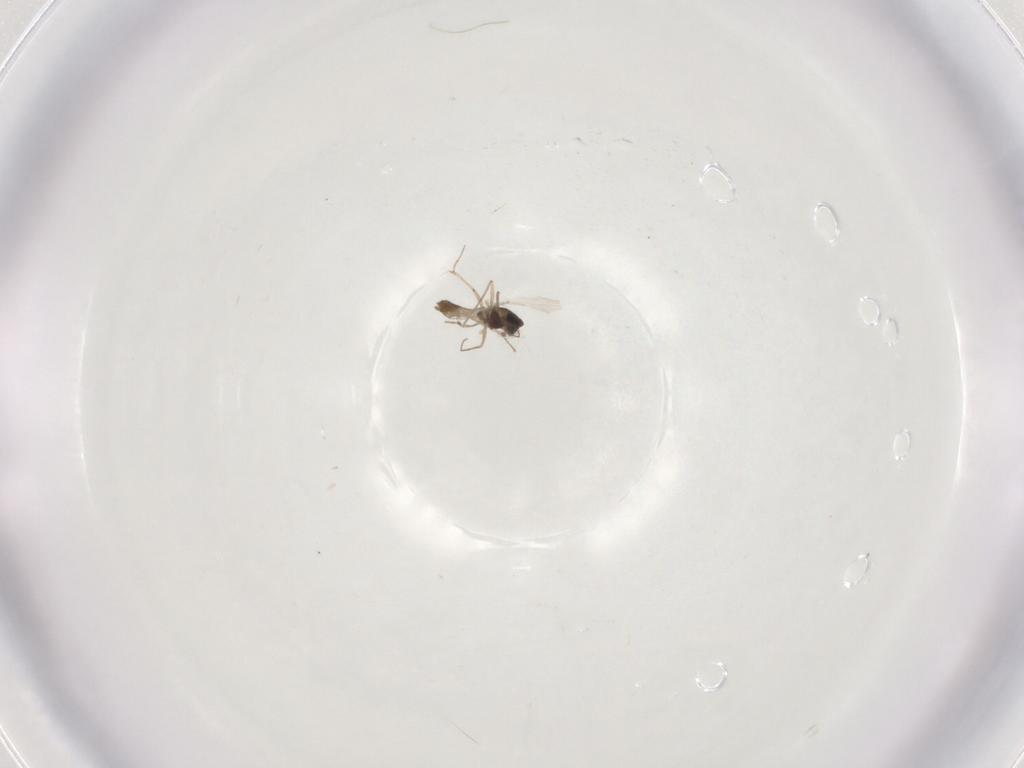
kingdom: Animalia
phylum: Arthropoda
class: Insecta
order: Diptera
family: Chironomidae
